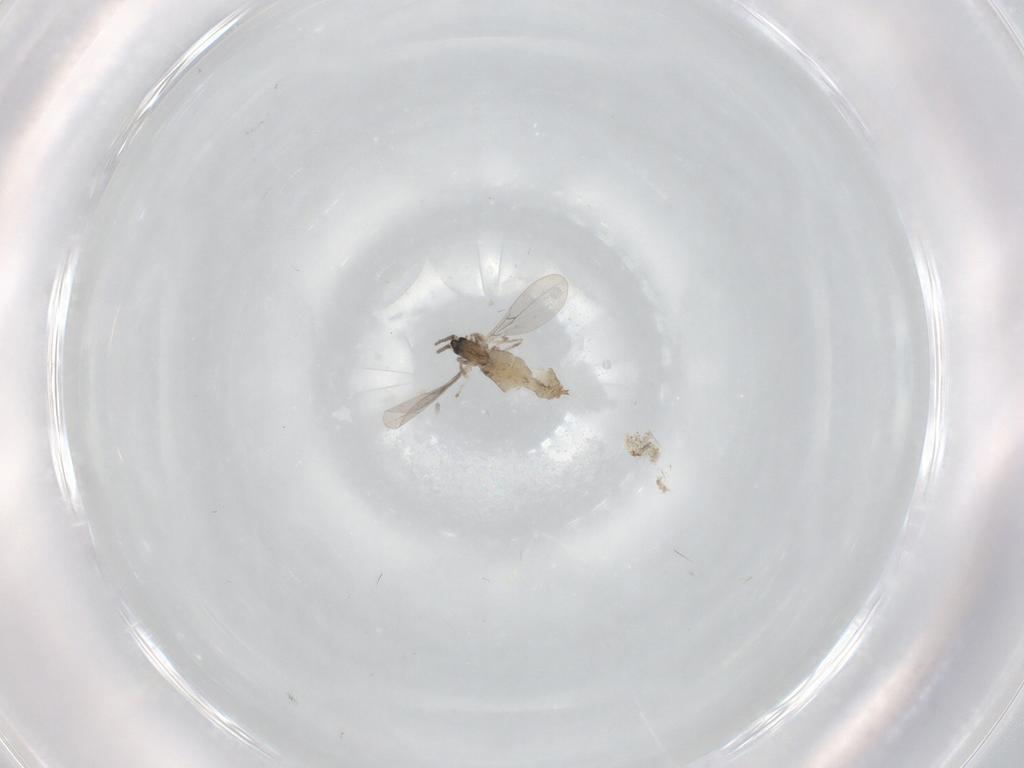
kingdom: Animalia
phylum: Arthropoda
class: Insecta
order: Diptera
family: Cecidomyiidae
